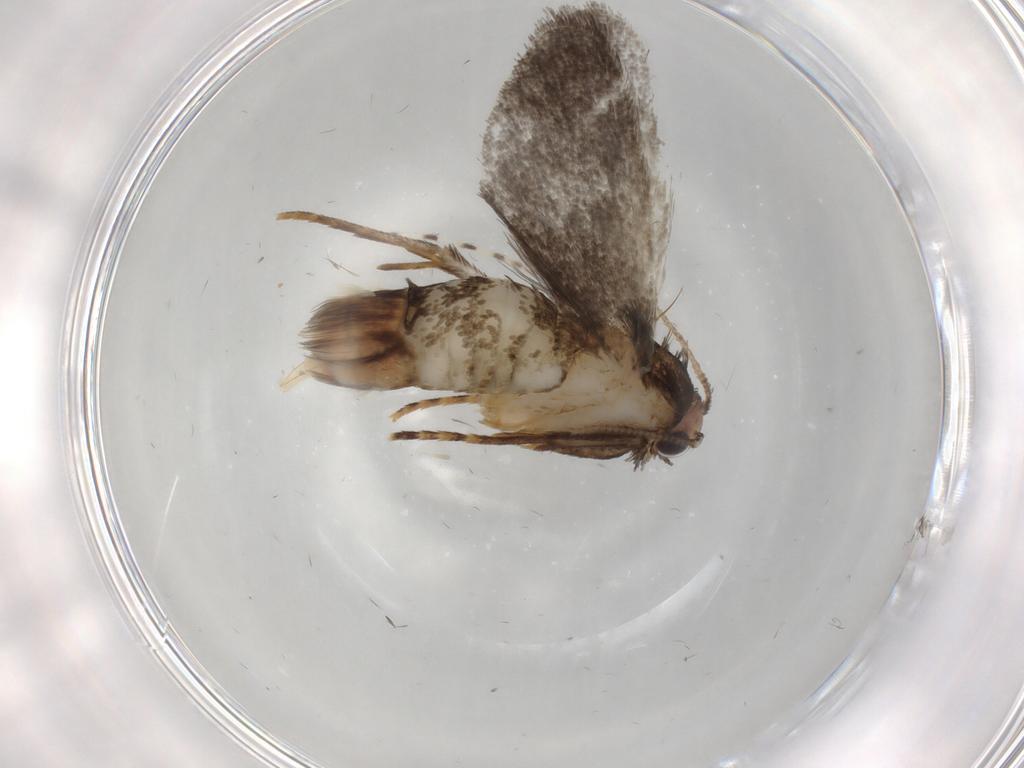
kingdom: Animalia
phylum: Arthropoda
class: Insecta
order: Lepidoptera
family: Psychidae
